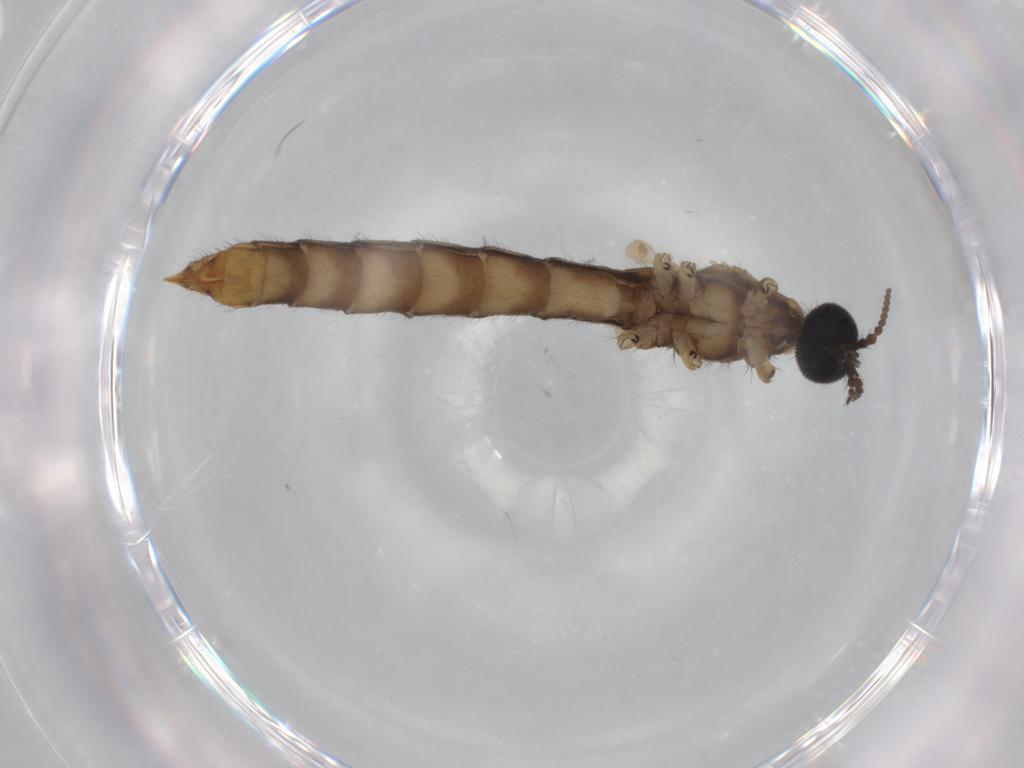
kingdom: Animalia
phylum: Arthropoda
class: Insecta
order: Diptera
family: Limoniidae
